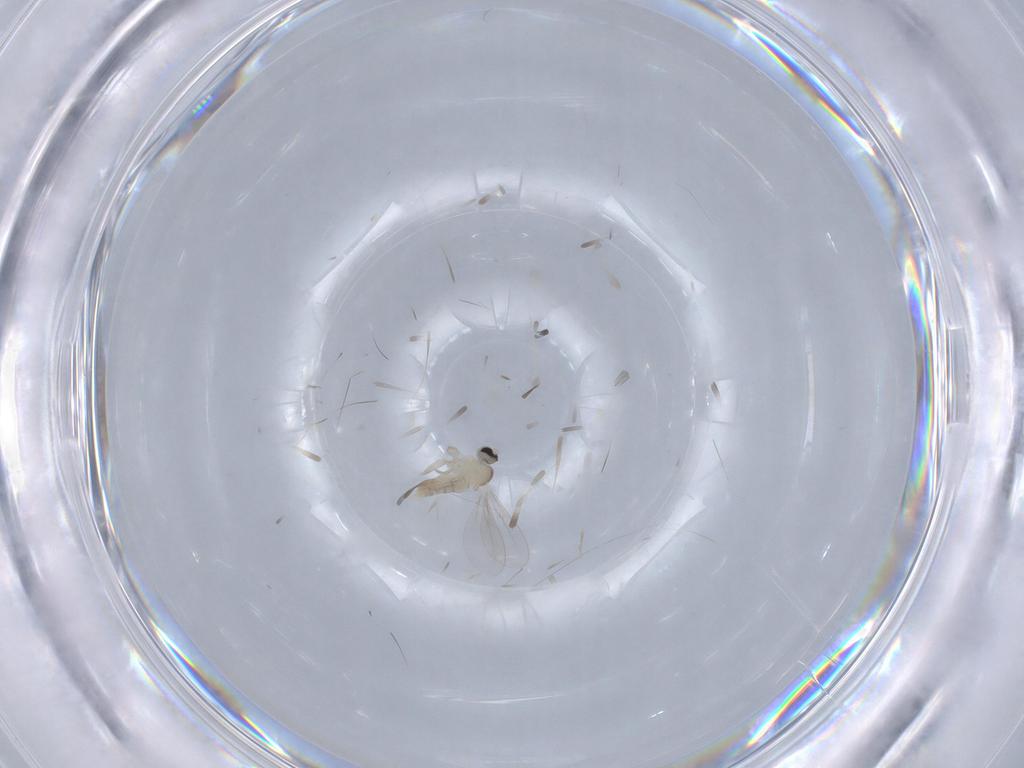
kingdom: Animalia
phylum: Arthropoda
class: Insecta
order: Diptera
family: Cecidomyiidae
